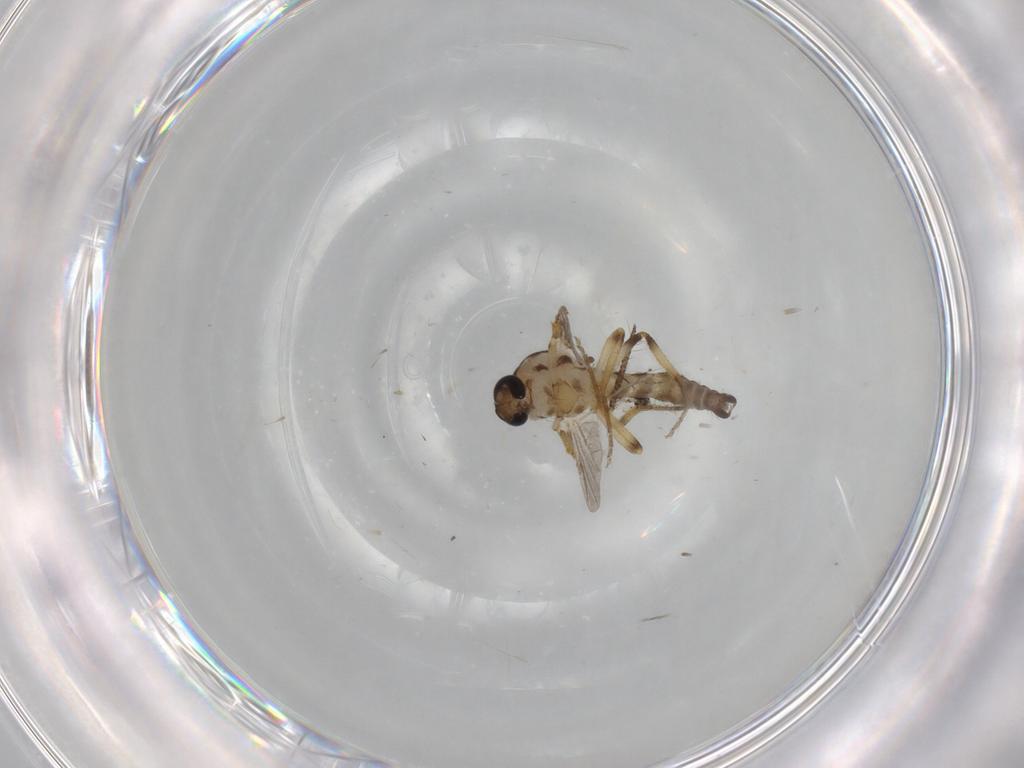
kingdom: Animalia
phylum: Arthropoda
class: Insecta
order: Diptera
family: Ceratopogonidae
